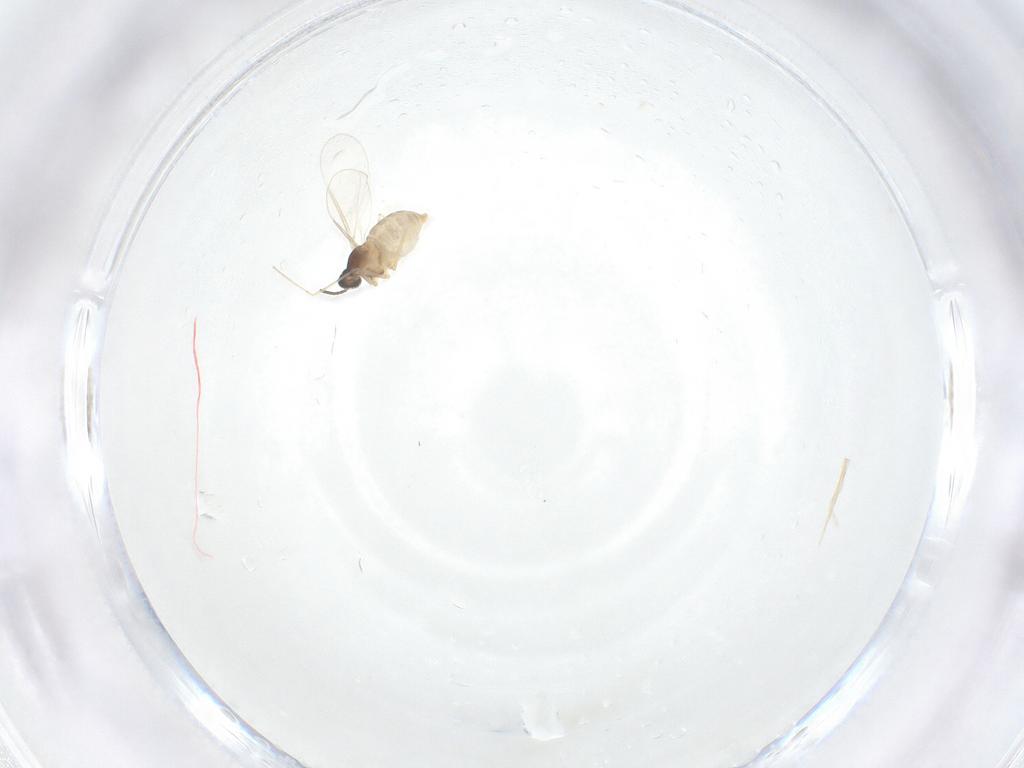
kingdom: Animalia
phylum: Arthropoda
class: Insecta
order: Diptera
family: Cecidomyiidae
